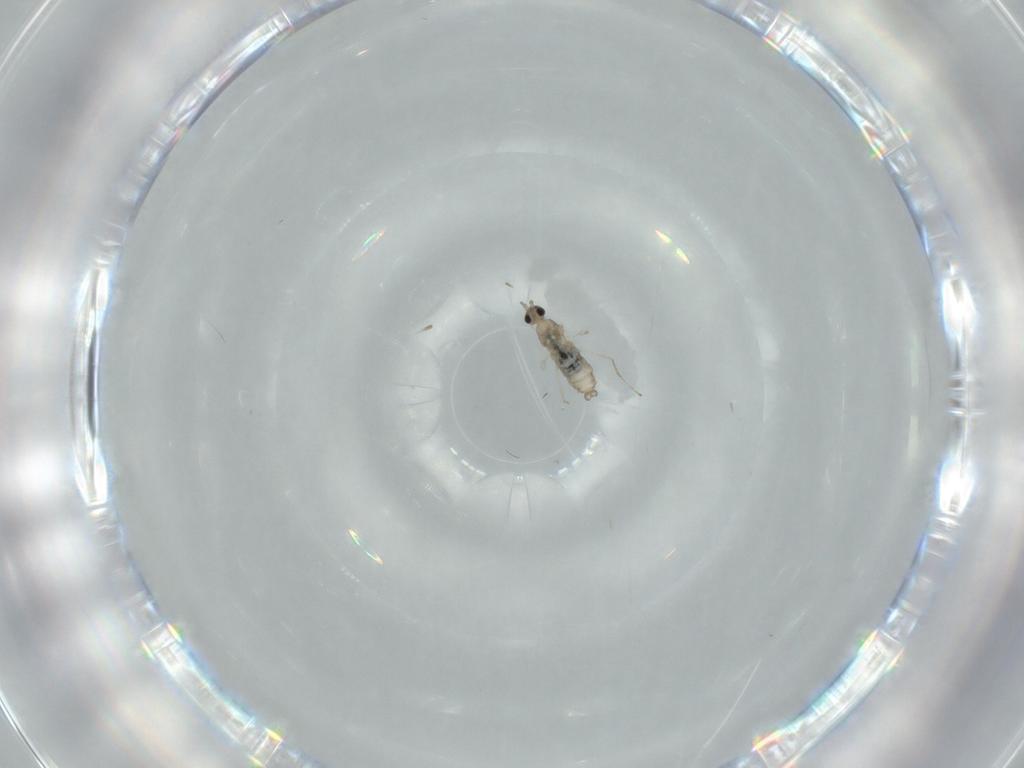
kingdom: Animalia
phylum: Arthropoda
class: Insecta
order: Diptera
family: Cecidomyiidae
